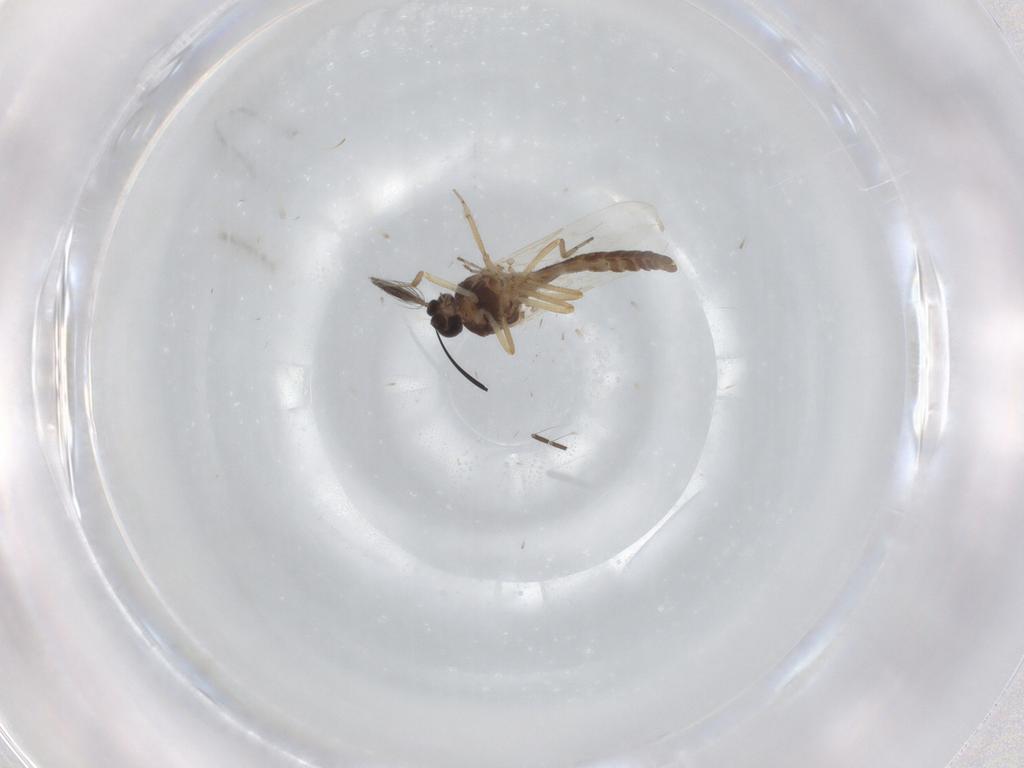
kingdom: Animalia
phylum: Arthropoda
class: Insecta
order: Diptera
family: Ceratopogonidae
